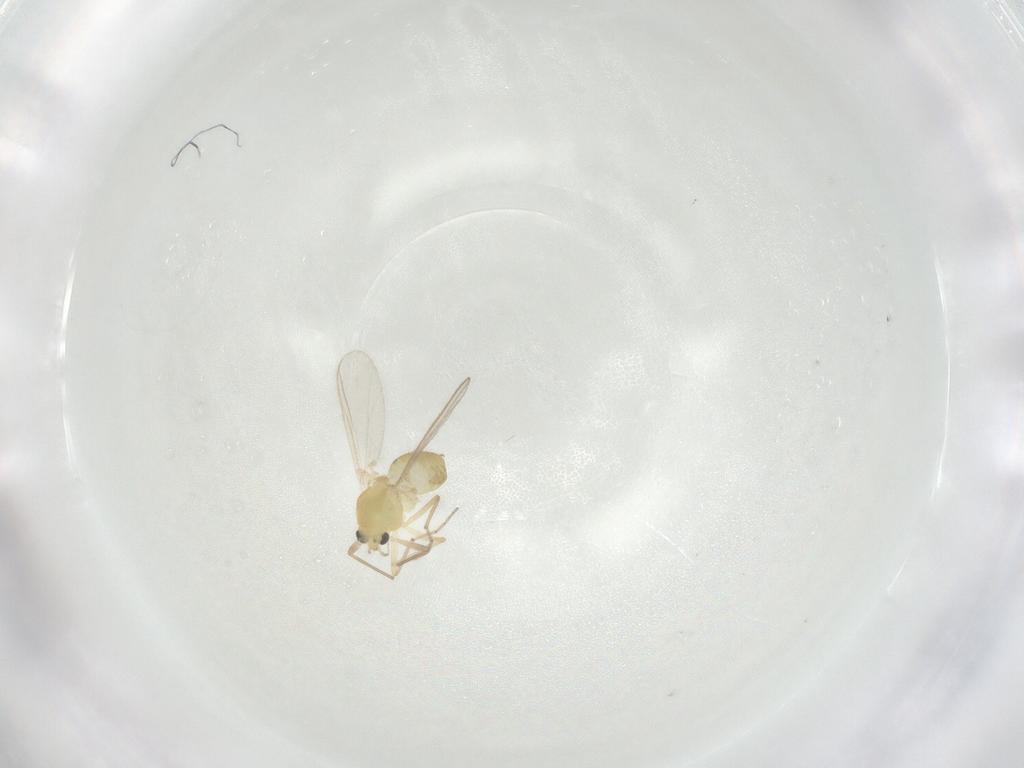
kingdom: Animalia
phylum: Arthropoda
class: Insecta
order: Diptera
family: Chironomidae
